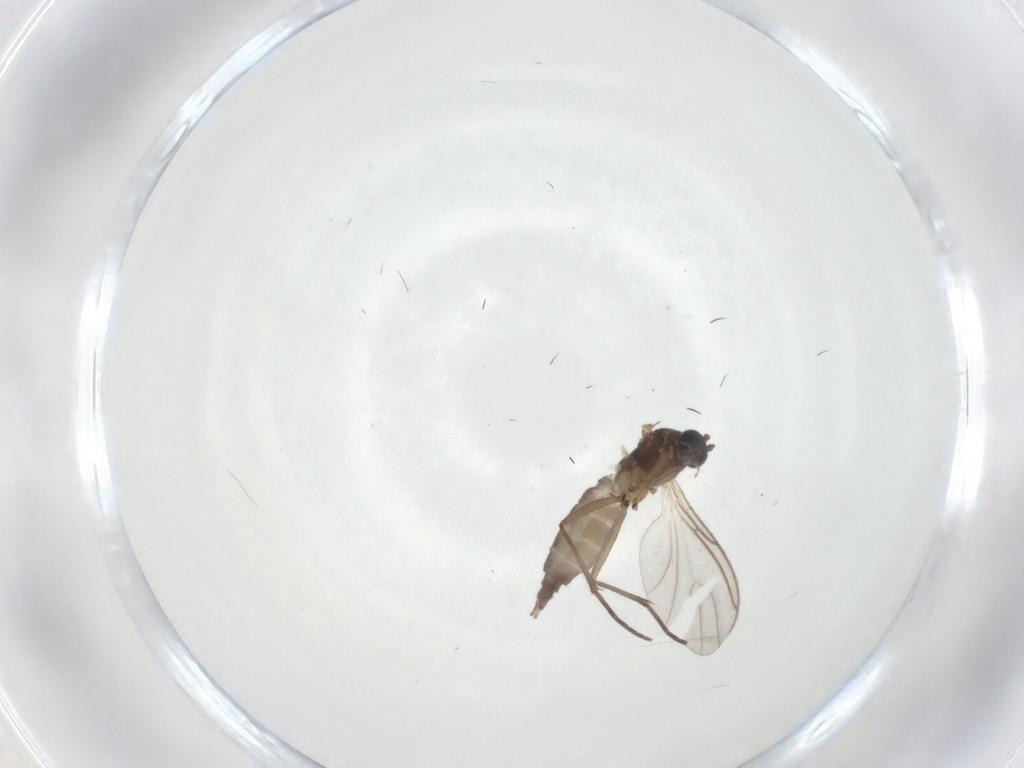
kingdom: Animalia
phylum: Arthropoda
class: Insecta
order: Diptera
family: Sciaridae
